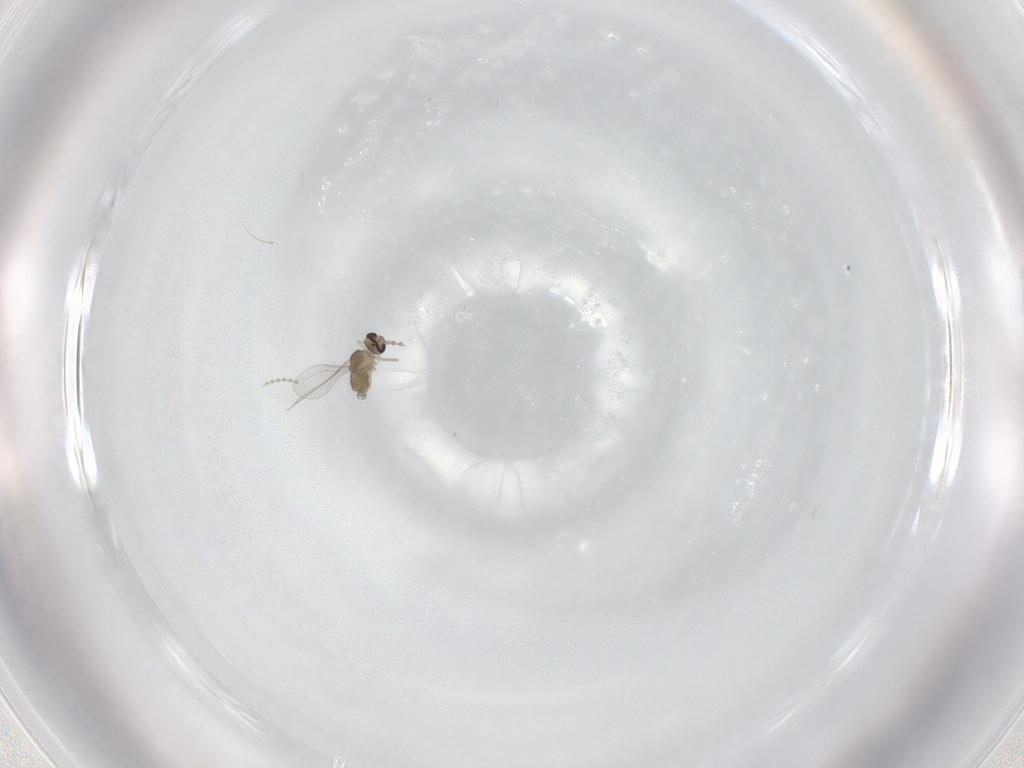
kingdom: Animalia
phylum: Arthropoda
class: Insecta
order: Diptera
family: Cecidomyiidae
